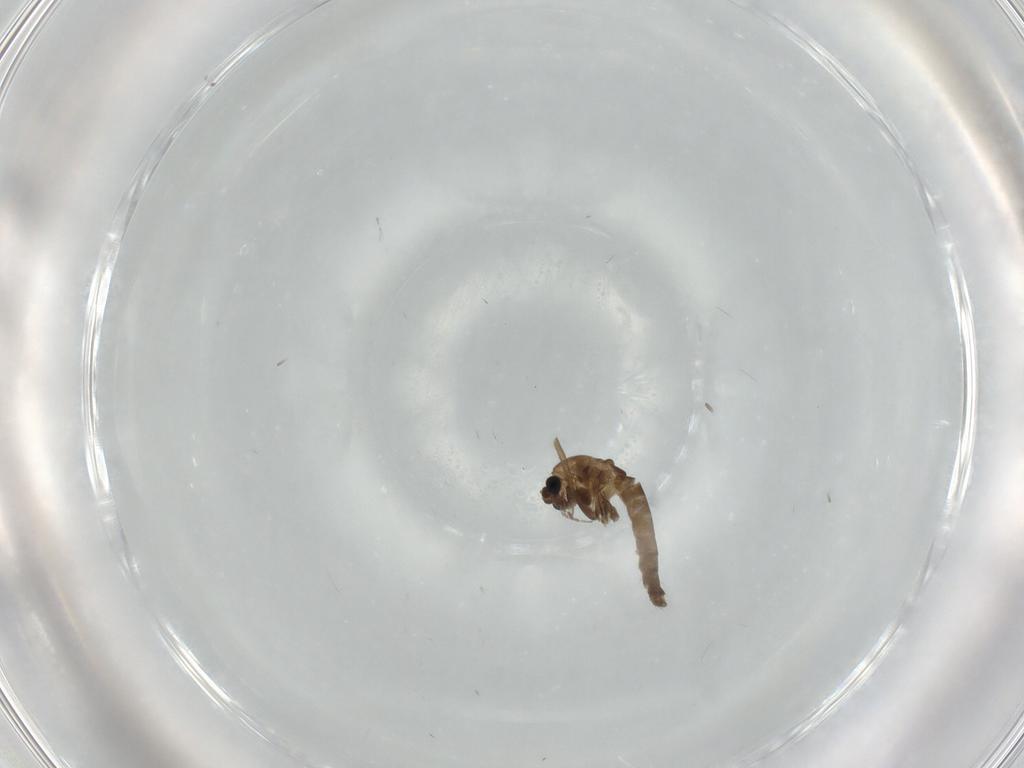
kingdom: Animalia
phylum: Arthropoda
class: Insecta
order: Diptera
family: Chironomidae
